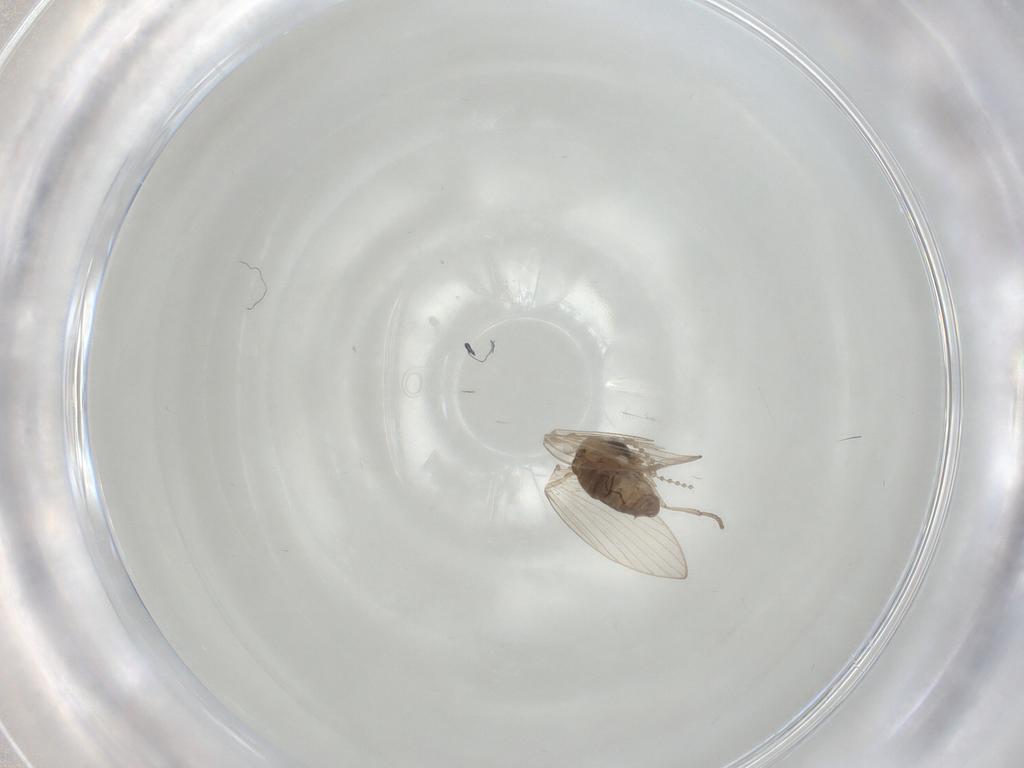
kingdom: Animalia
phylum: Arthropoda
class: Insecta
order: Diptera
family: Psychodidae
